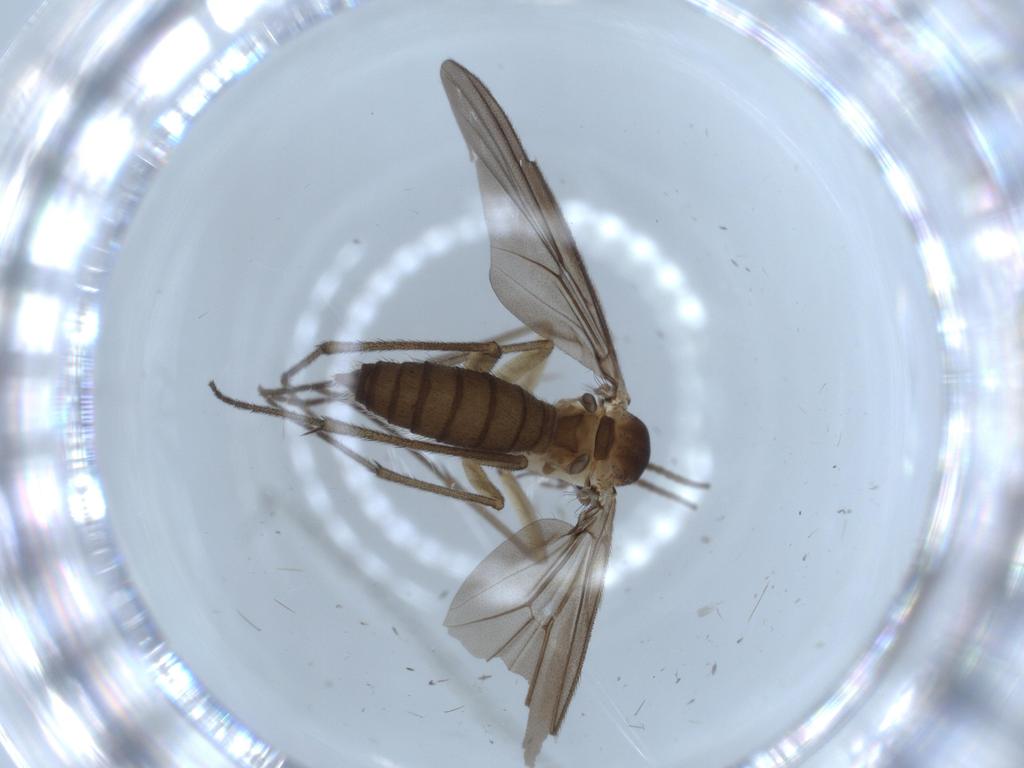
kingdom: Animalia
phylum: Arthropoda
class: Insecta
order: Diptera
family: Diadocidiidae
